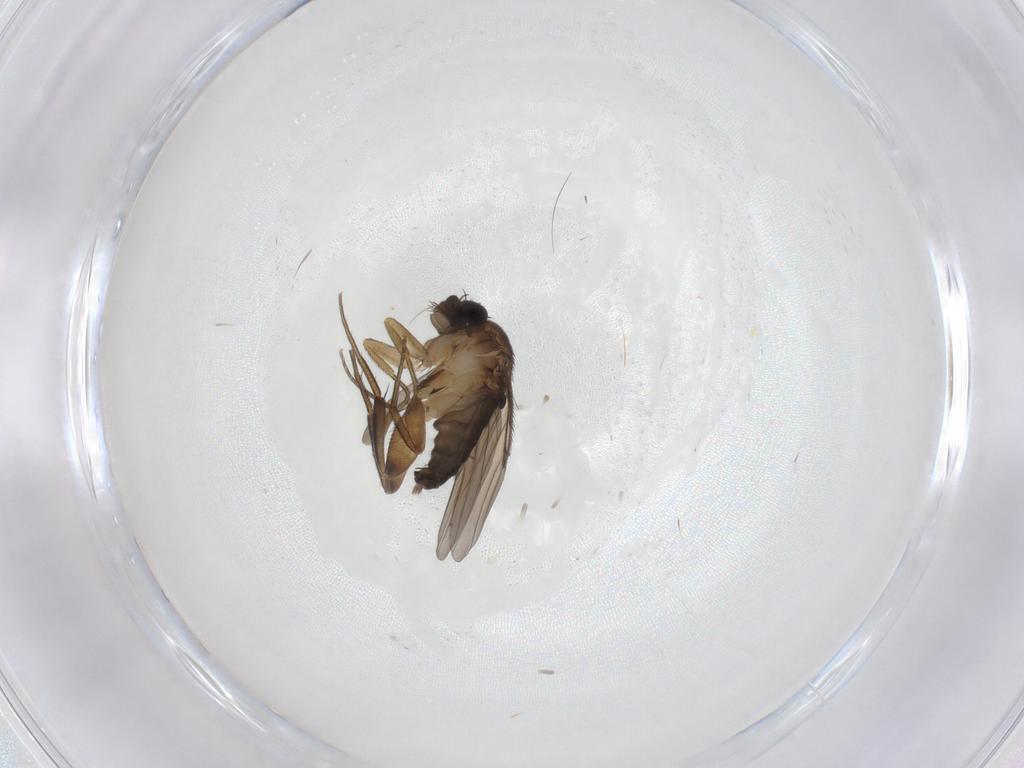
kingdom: Animalia
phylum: Arthropoda
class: Insecta
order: Diptera
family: Phoridae
